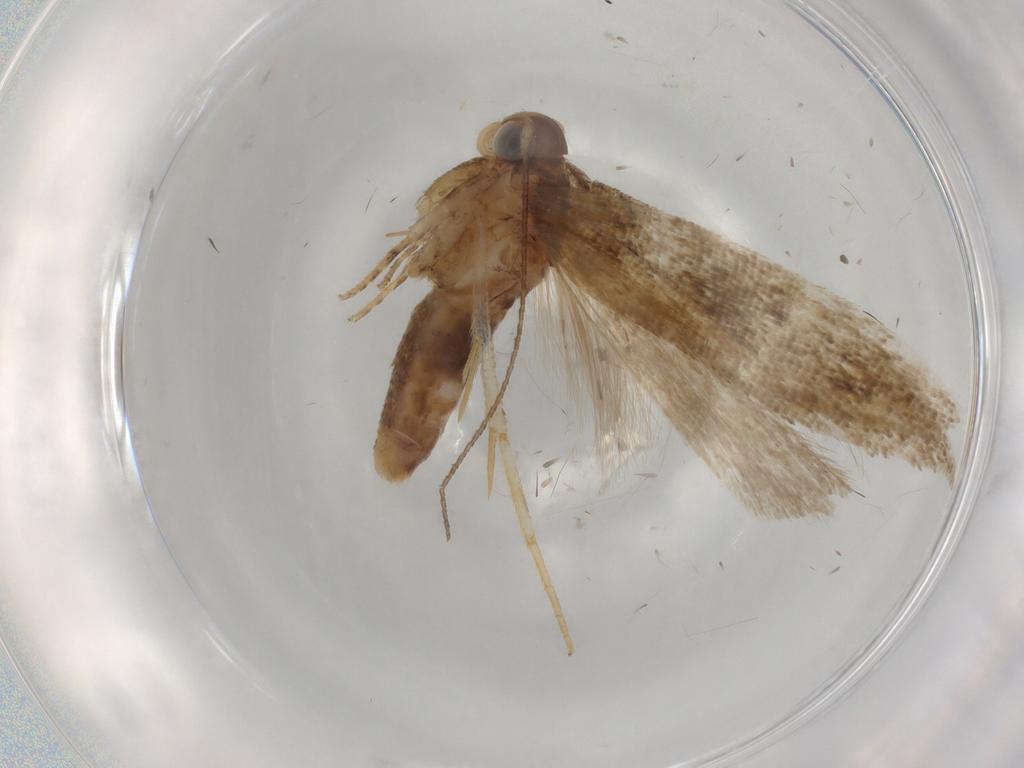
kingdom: Animalia
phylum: Arthropoda
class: Insecta
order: Lepidoptera
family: Gelechiidae
